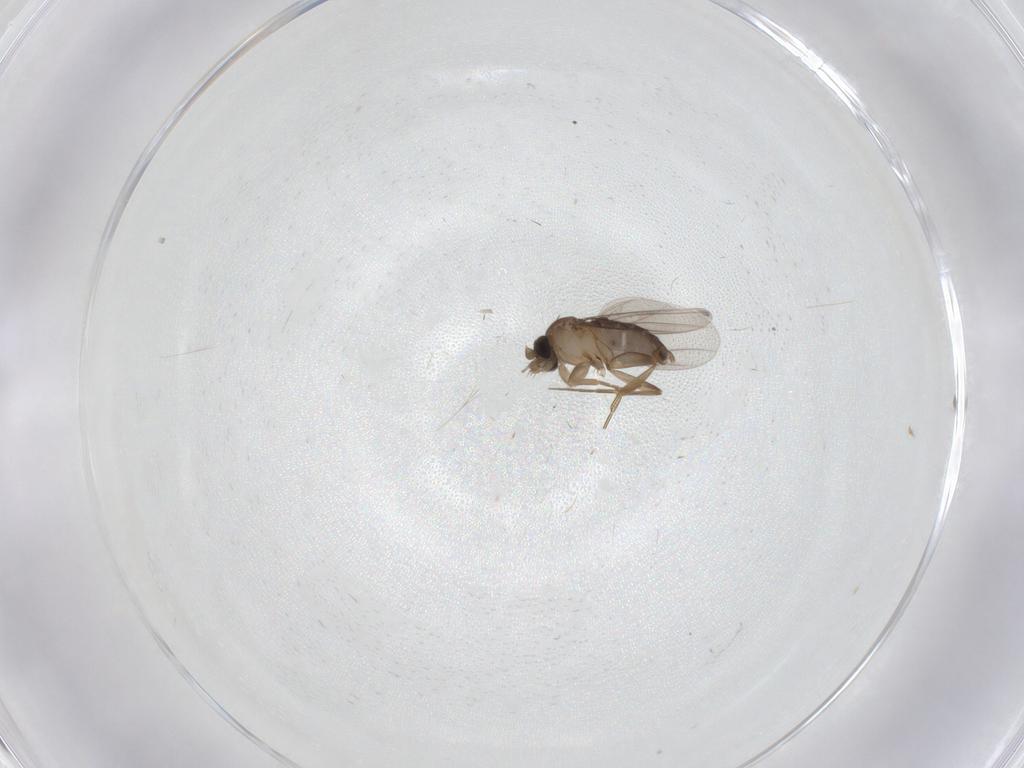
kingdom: Animalia
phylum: Arthropoda
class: Insecta
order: Diptera
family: Phoridae
